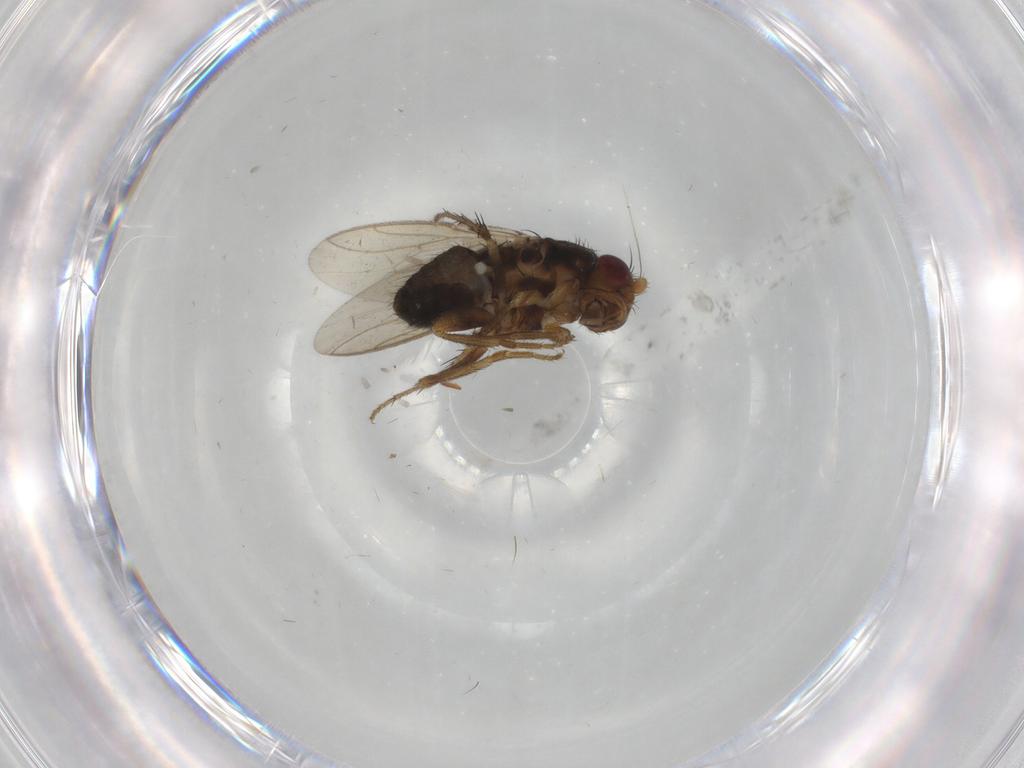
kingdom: Animalia
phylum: Arthropoda
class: Insecta
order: Diptera
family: Sphaeroceridae
